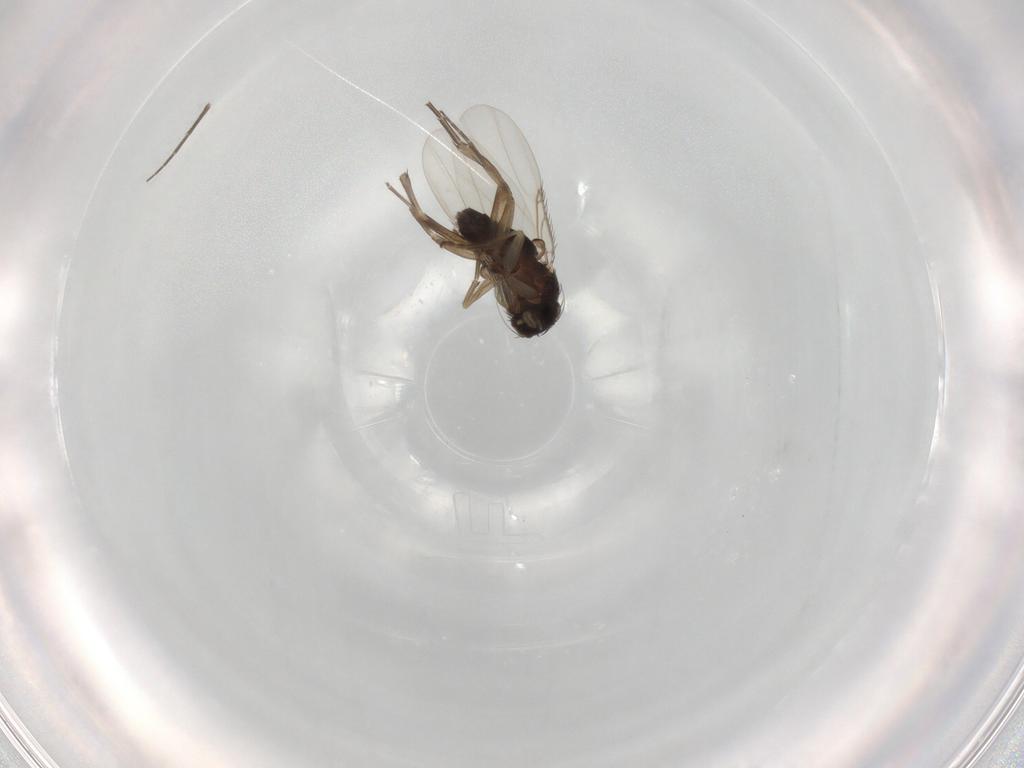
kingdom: Animalia
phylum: Arthropoda
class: Insecta
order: Diptera
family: Phoridae
